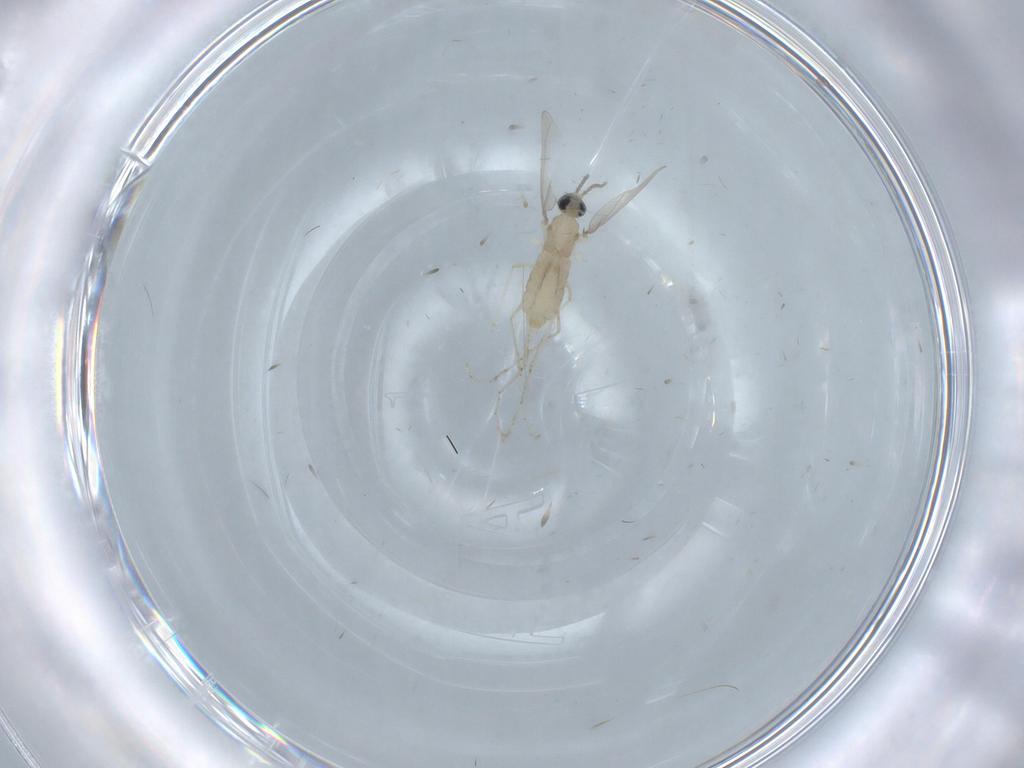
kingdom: Animalia
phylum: Arthropoda
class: Insecta
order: Diptera
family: Cecidomyiidae
